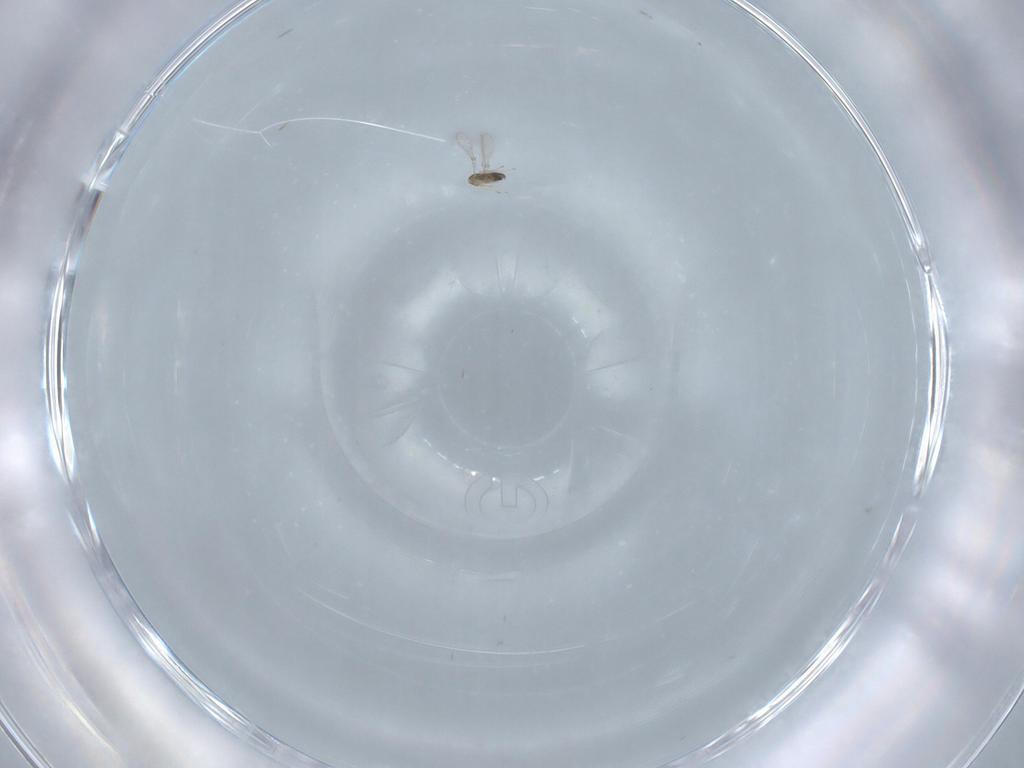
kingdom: Animalia
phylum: Arthropoda
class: Insecta
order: Hymenoptera
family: Mymaridae
